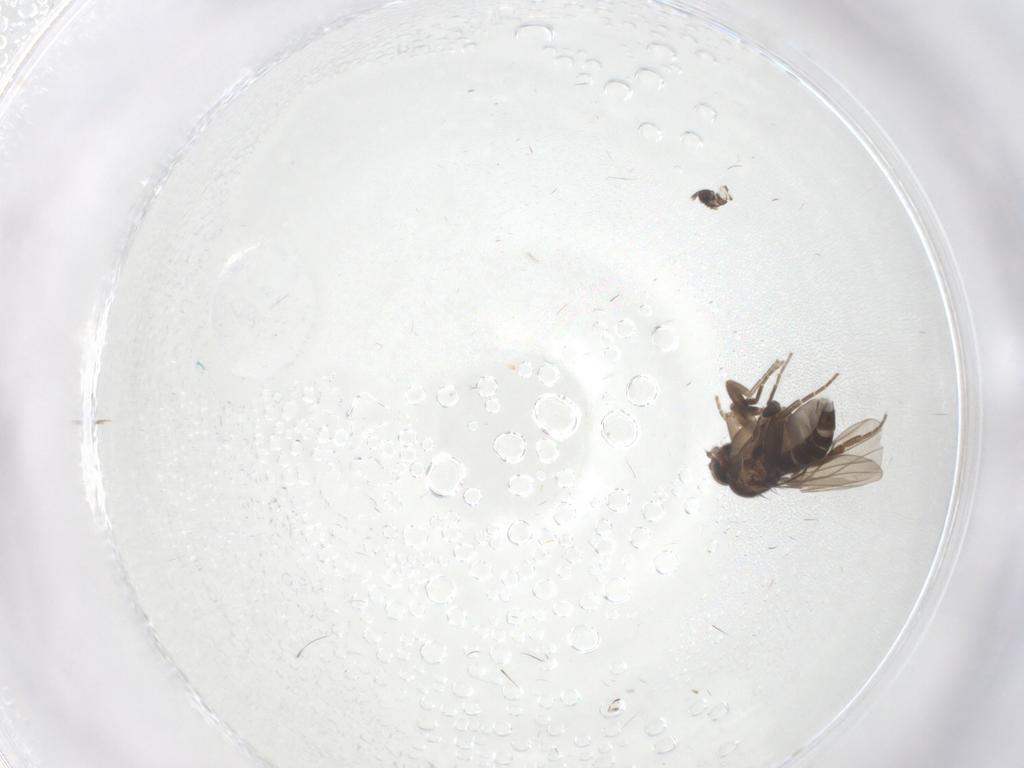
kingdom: Animalia
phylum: Arthropoda
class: Insecta
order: Diptera
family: Phoridae
